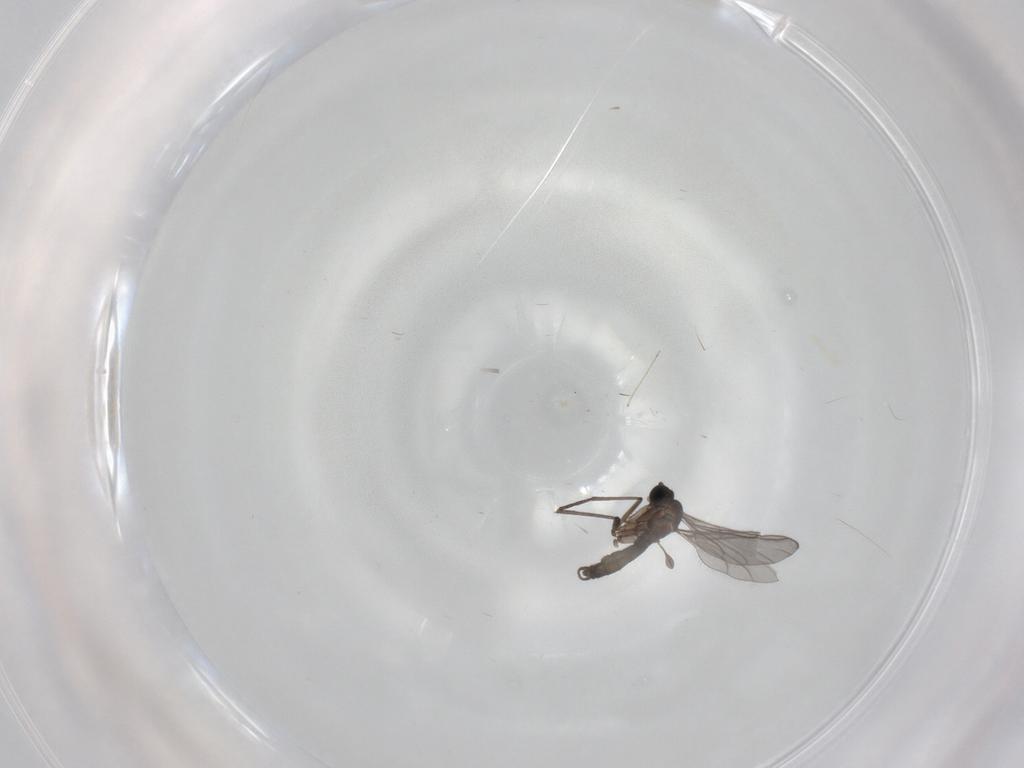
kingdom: Animalia
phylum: Arthropoda
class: Insecta
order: Diptera
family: Cecidomyiidae
